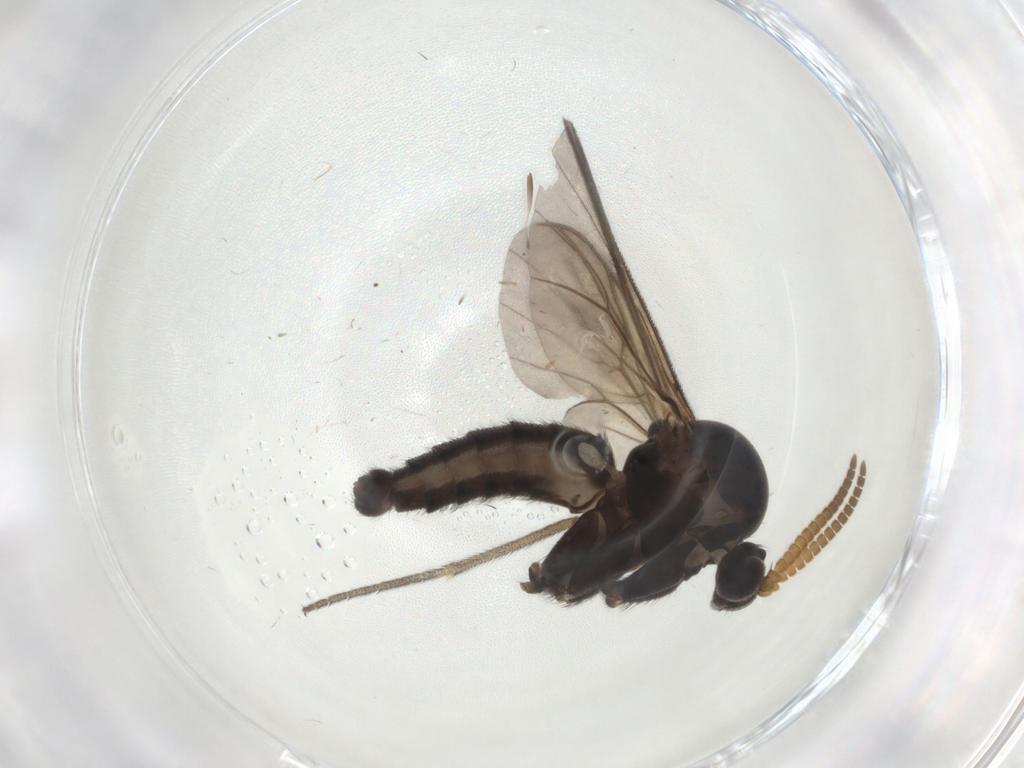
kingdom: Animalia
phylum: Arthropoda
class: Insecta
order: Diptera
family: Ceratopogonidae
